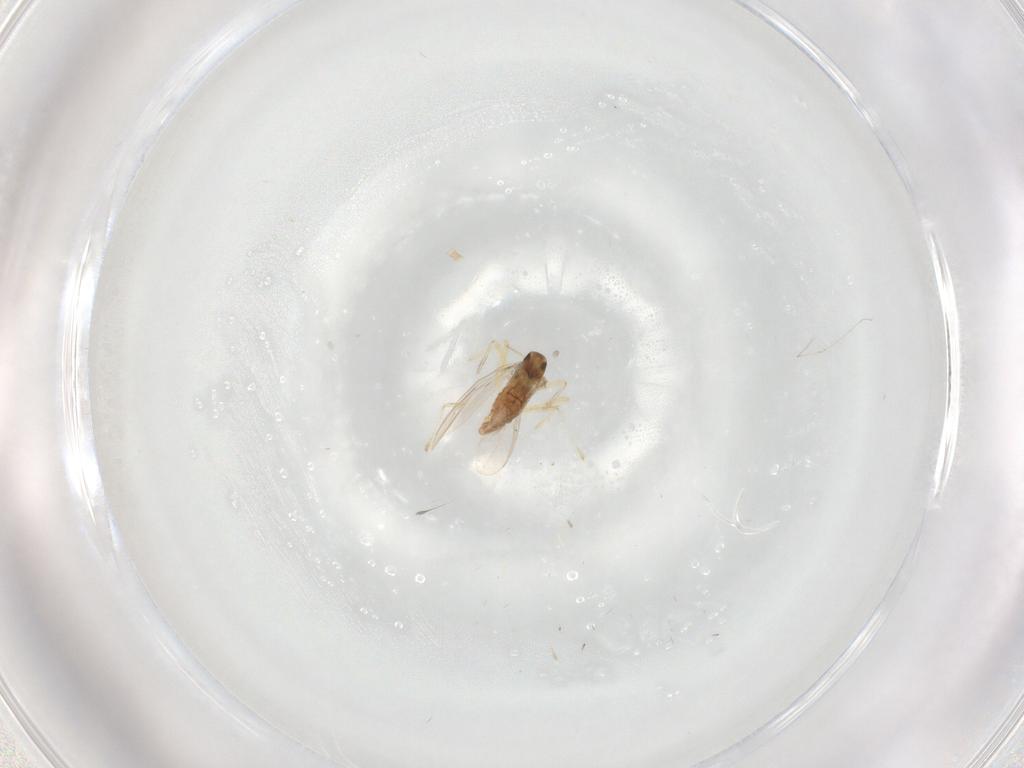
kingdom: Animalia
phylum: Arthropoda
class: Insecta
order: Diptera
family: Chironomidae
